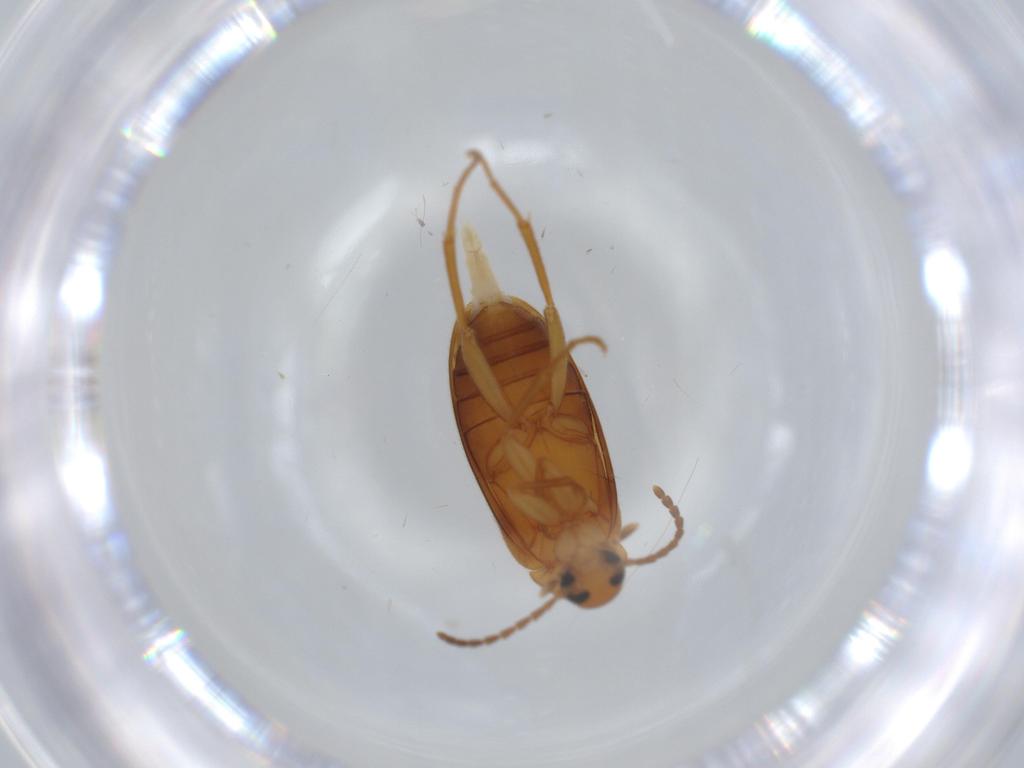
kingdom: Animalia
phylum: Arthropoda
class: Insecta
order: Coleoptera
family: Scraptiidae
